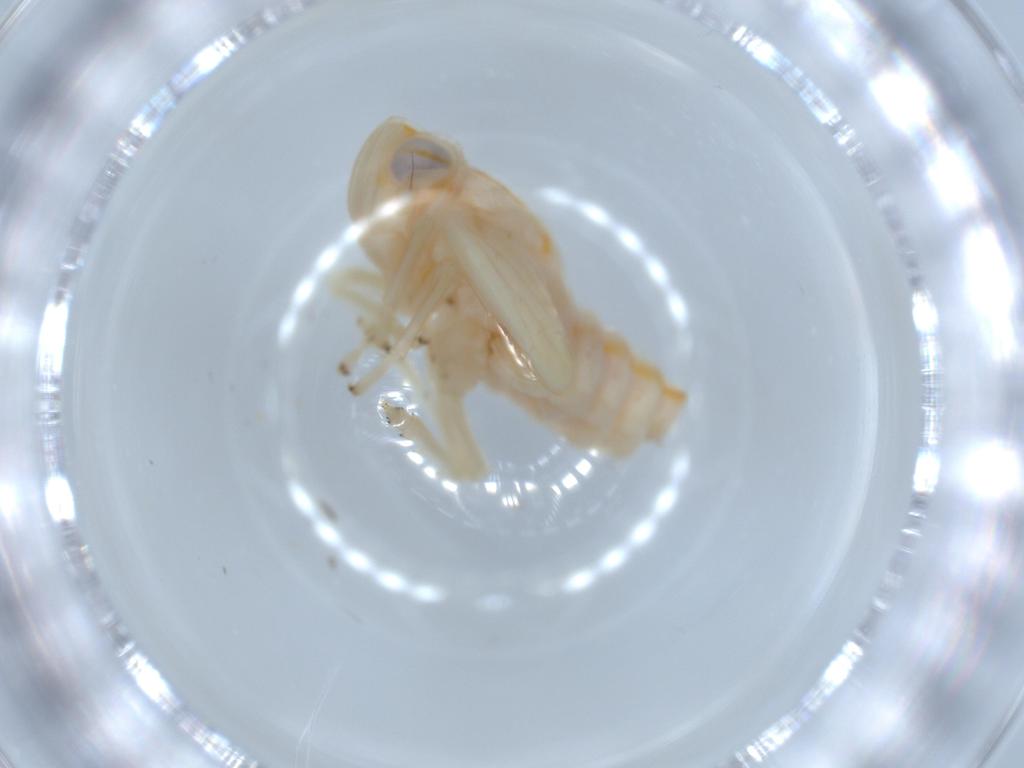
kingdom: Animalia
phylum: Arthropoda
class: Insecta
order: Hemiptera
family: Nogodinidae
